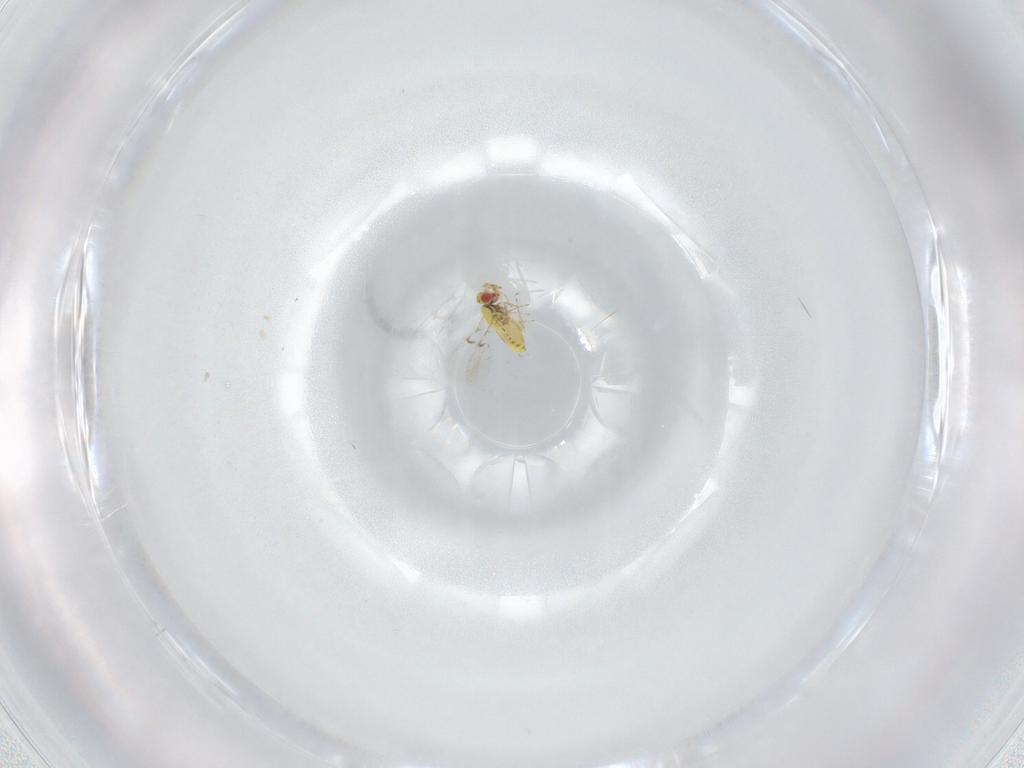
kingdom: Animalia
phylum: Arthropoda
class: Insecta
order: Hymenoptera
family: Trichogrammatidae
